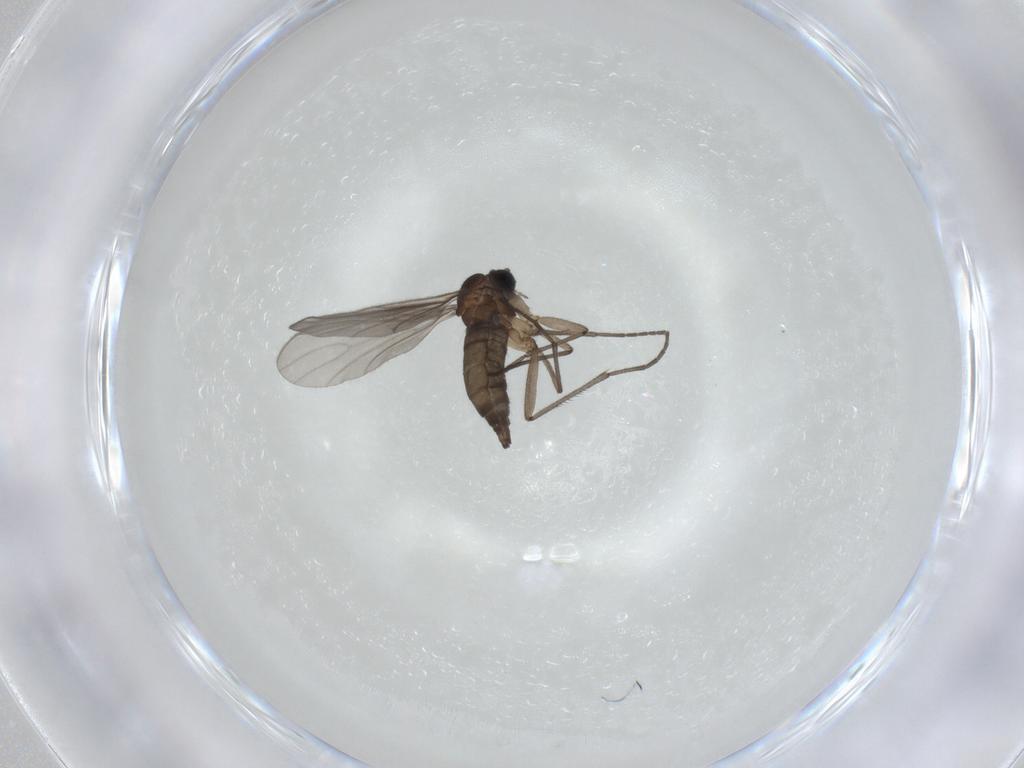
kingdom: Animalia
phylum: Arthropoda
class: Insecta
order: Diptera
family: Sciaridae
